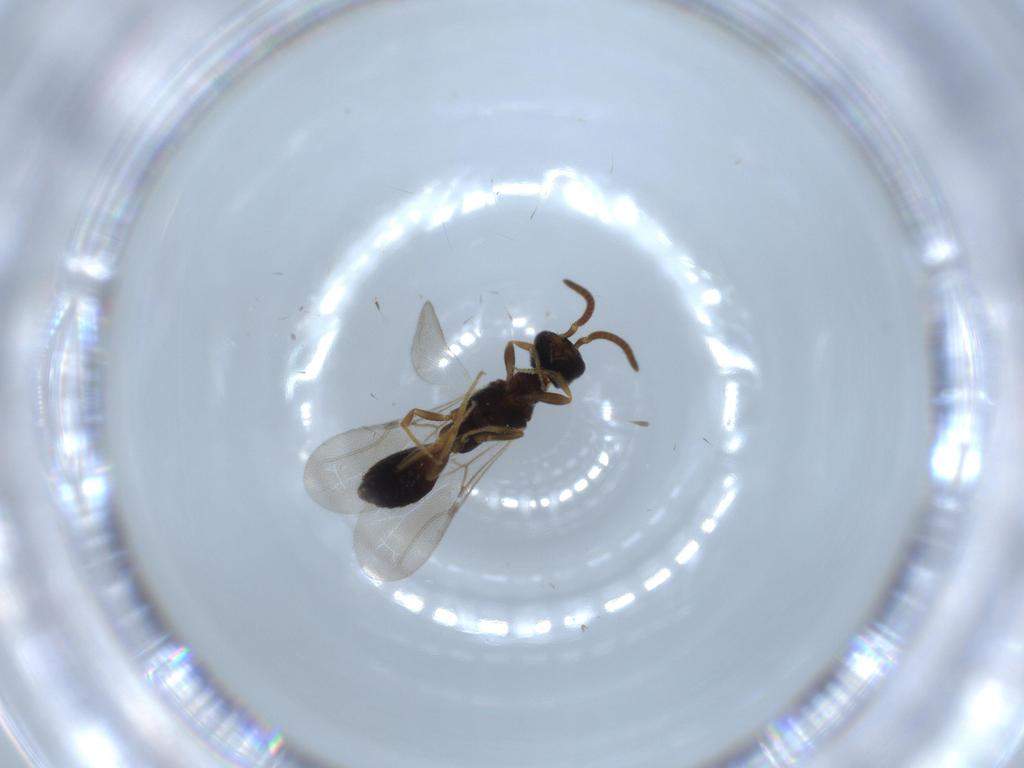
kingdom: Animalia
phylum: Arthropoda
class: Insecta
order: Hymenoptera
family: Bethylidae
